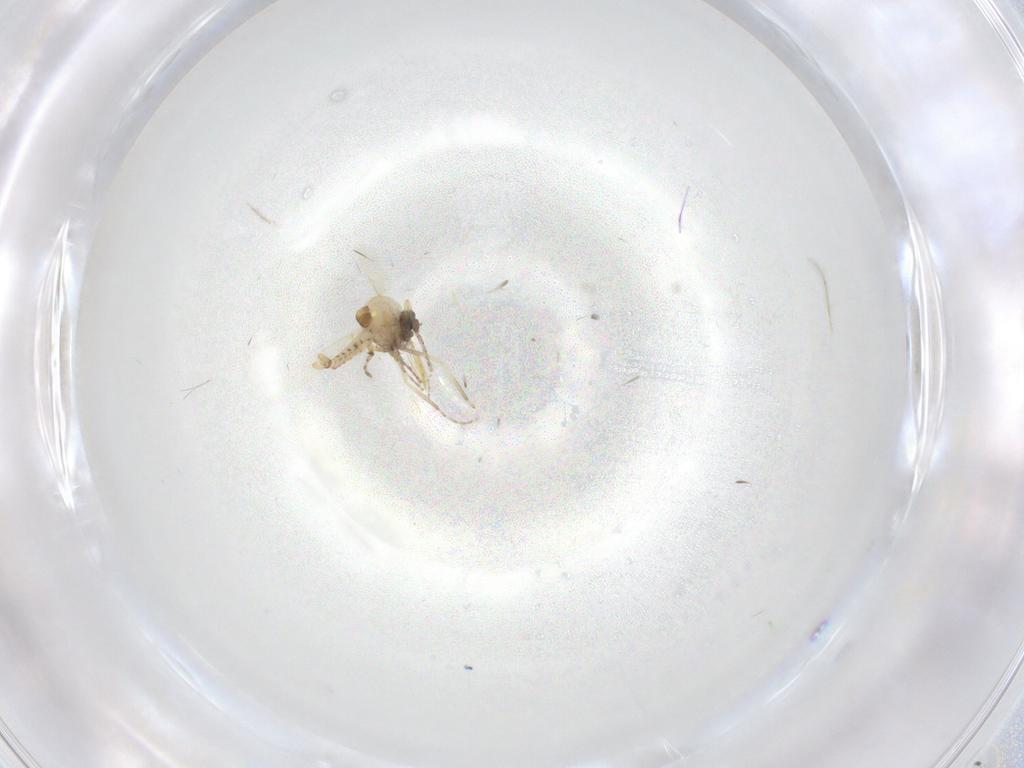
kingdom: Animalia
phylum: Arthropoda
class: Insecta
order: Diptera
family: Ceratopogonidae
